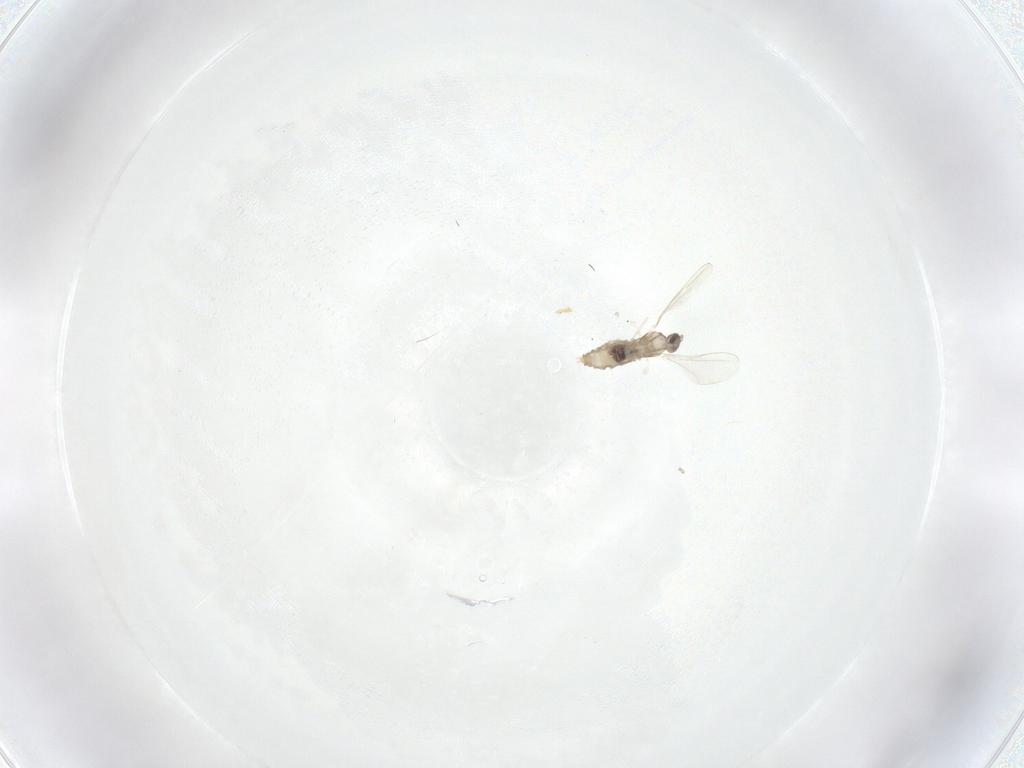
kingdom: Animalia
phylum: Arthropoda
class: Insecta
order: Diptera
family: Cecidomyiidae
